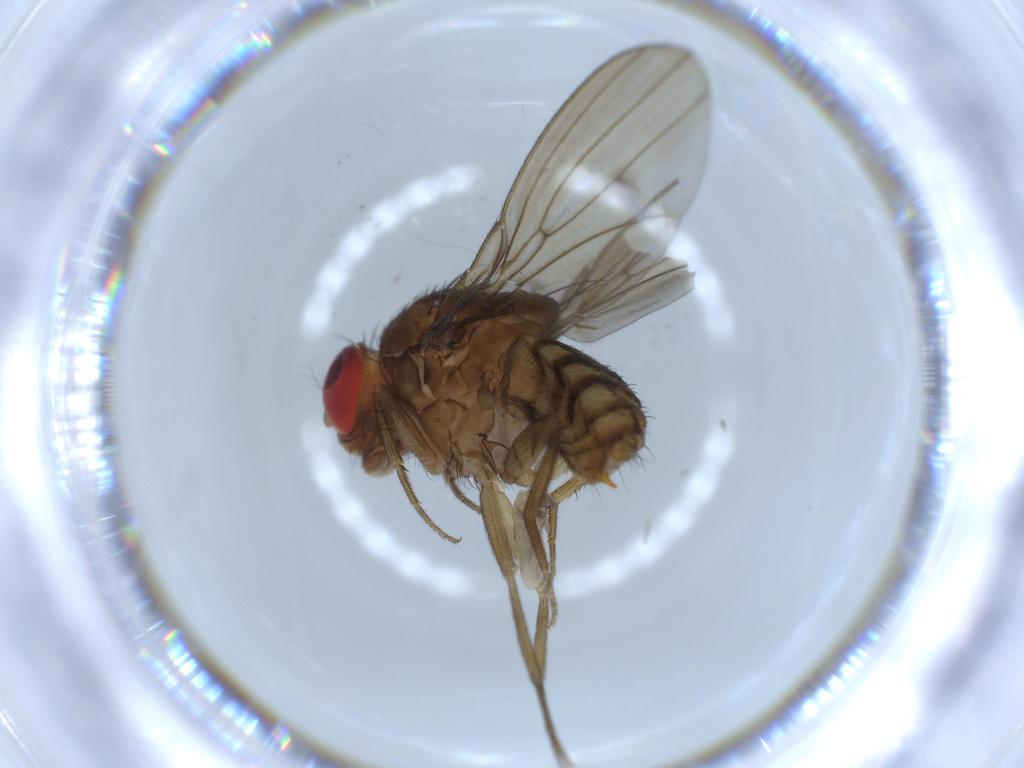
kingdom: Animalia
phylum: Arthropoda
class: Insecta
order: Diptera
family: Drosophilidae
